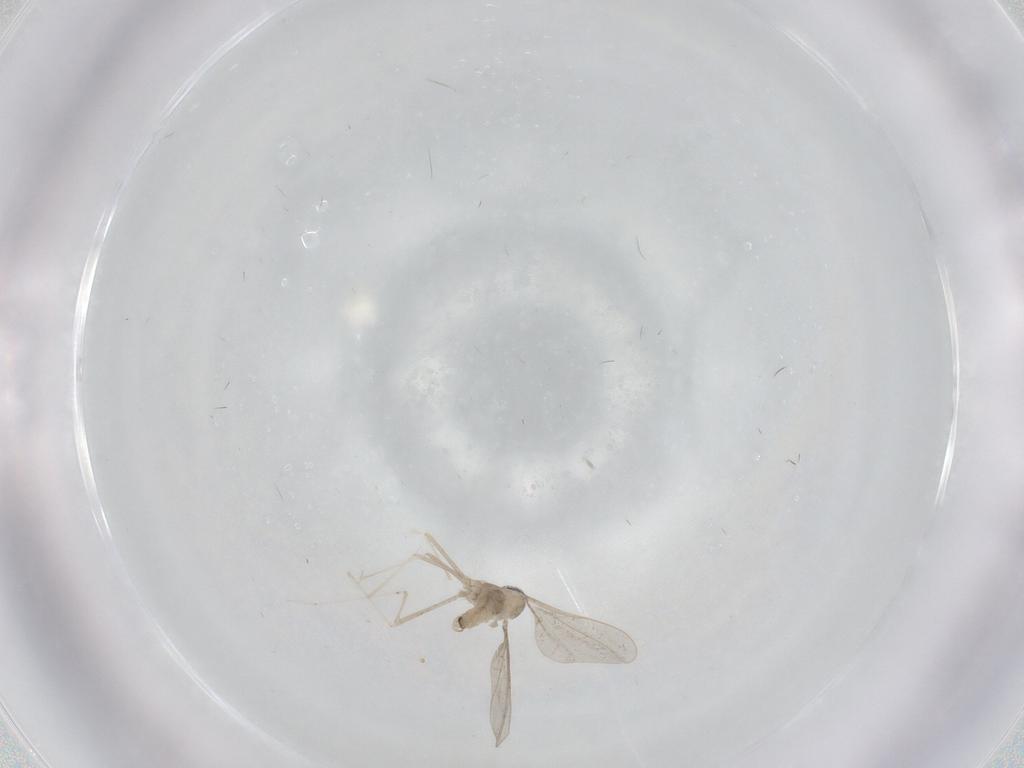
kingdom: Animalia
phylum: Arthropoda
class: Insecta
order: Diptera
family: Cecidomyiidae
